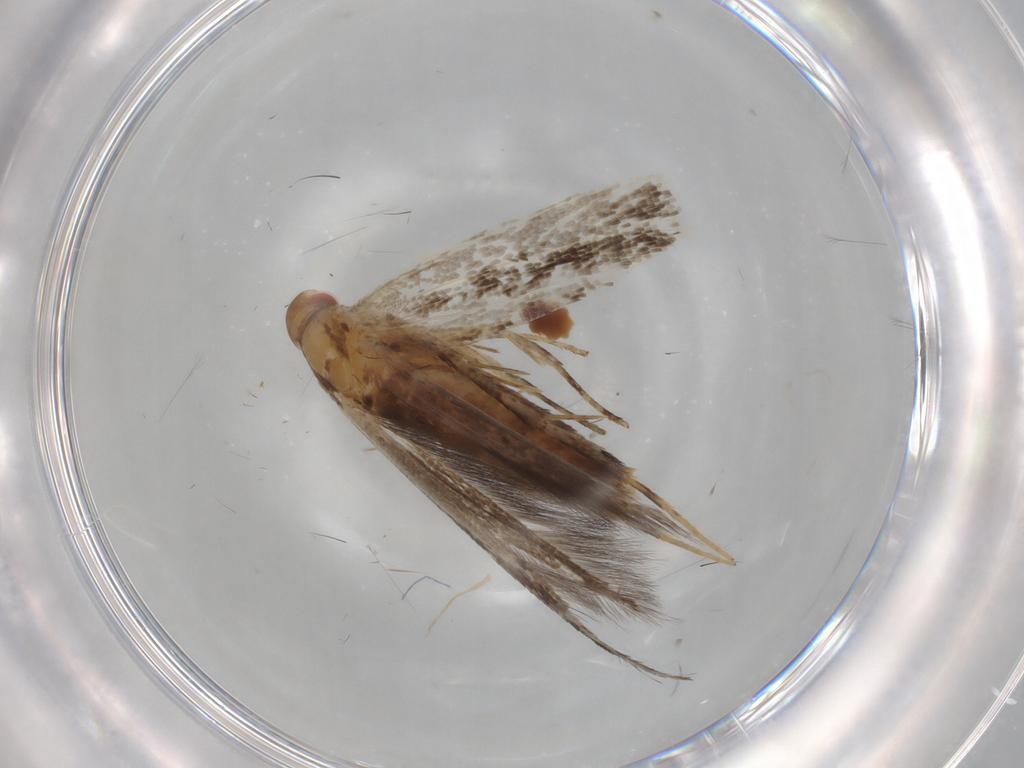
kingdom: Animalia
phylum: Arthropoda
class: Insecta
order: Lepidoptera
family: Cosmopterigidae
